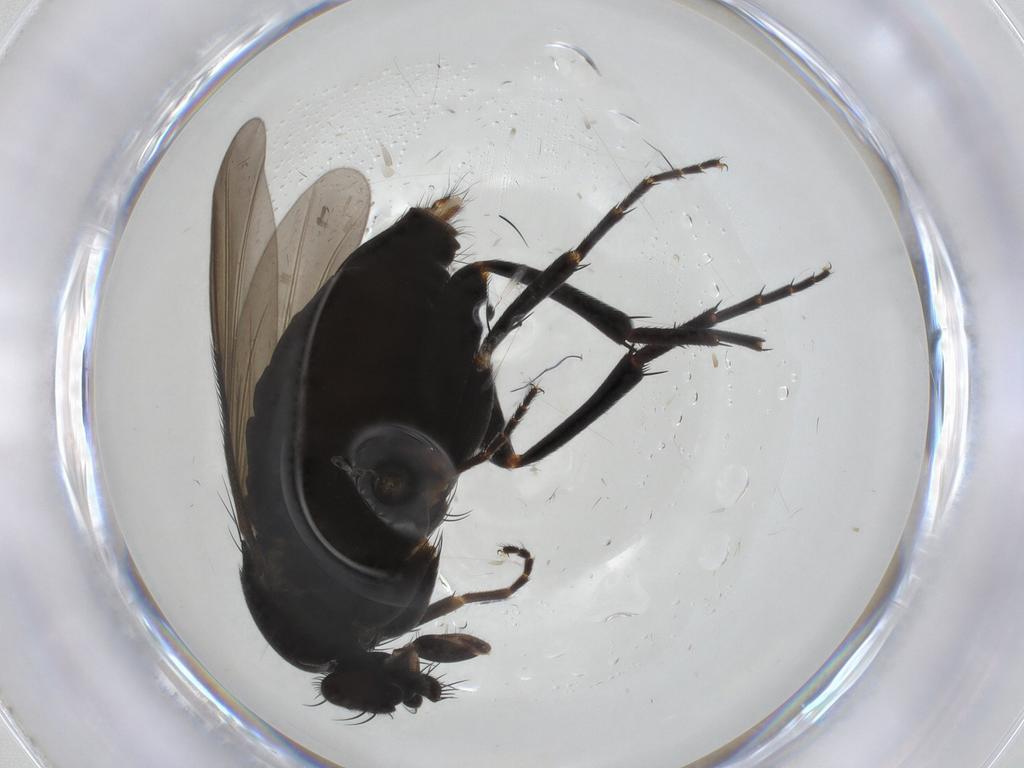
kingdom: Animalia
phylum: Arthropoda
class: Insecta
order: Diptera
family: Phoridae
